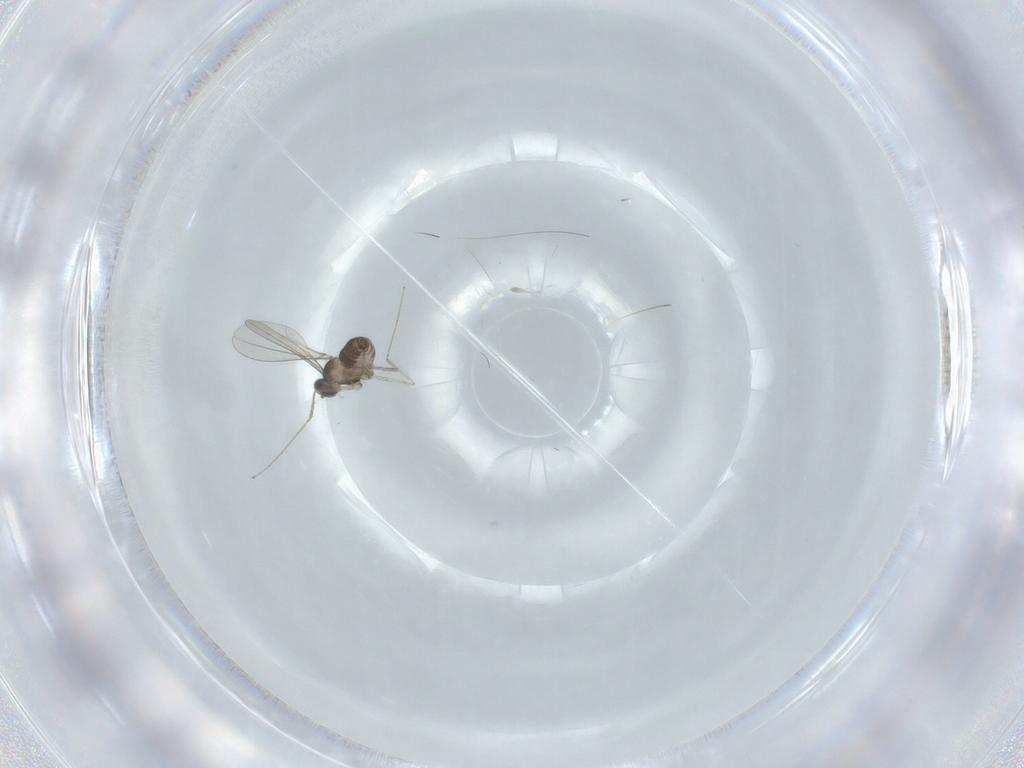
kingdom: Animalia
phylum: Arthropoda
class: Insecta
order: Diptera
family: Cecidomyiidae
